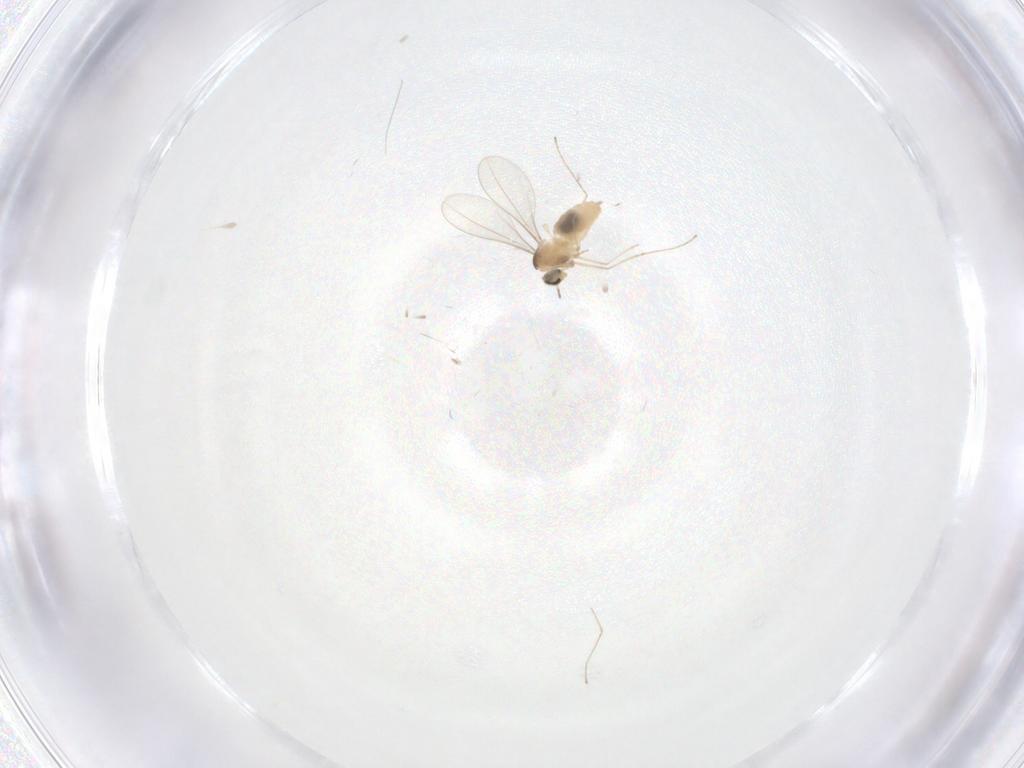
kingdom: Animalia
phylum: Arthropoda
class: Insecta
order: Diptera
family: Cecidomyiidae
